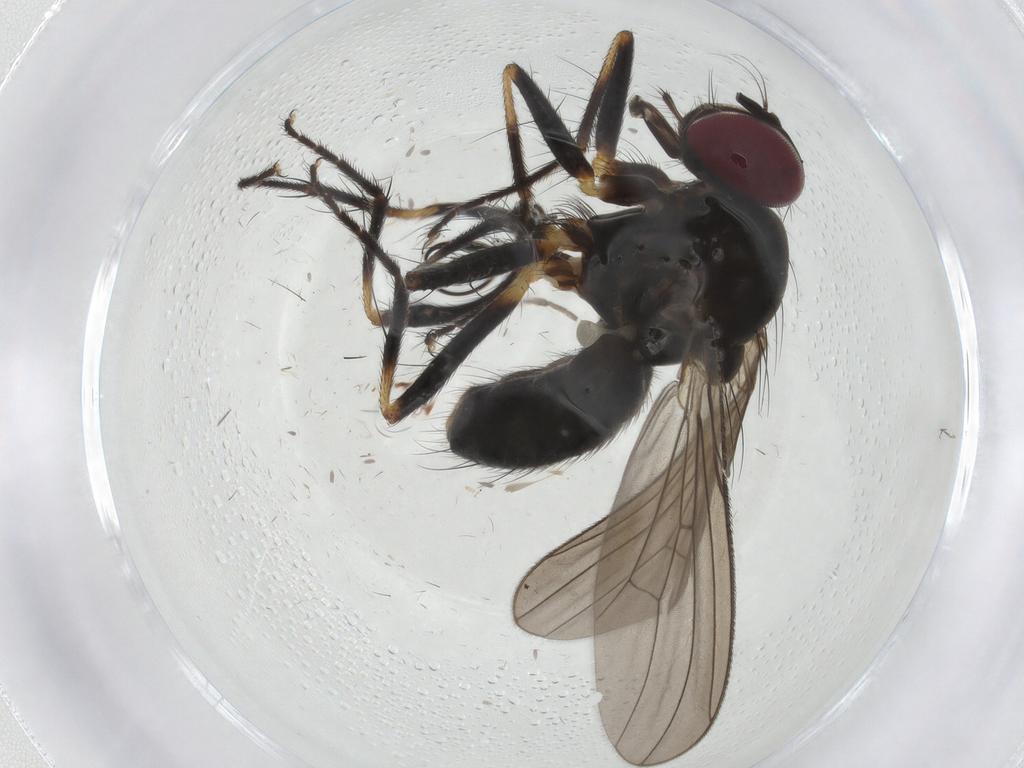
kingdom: Animalia
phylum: Arthropoda
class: Insecta
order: Diptera
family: Anthomyiidae
